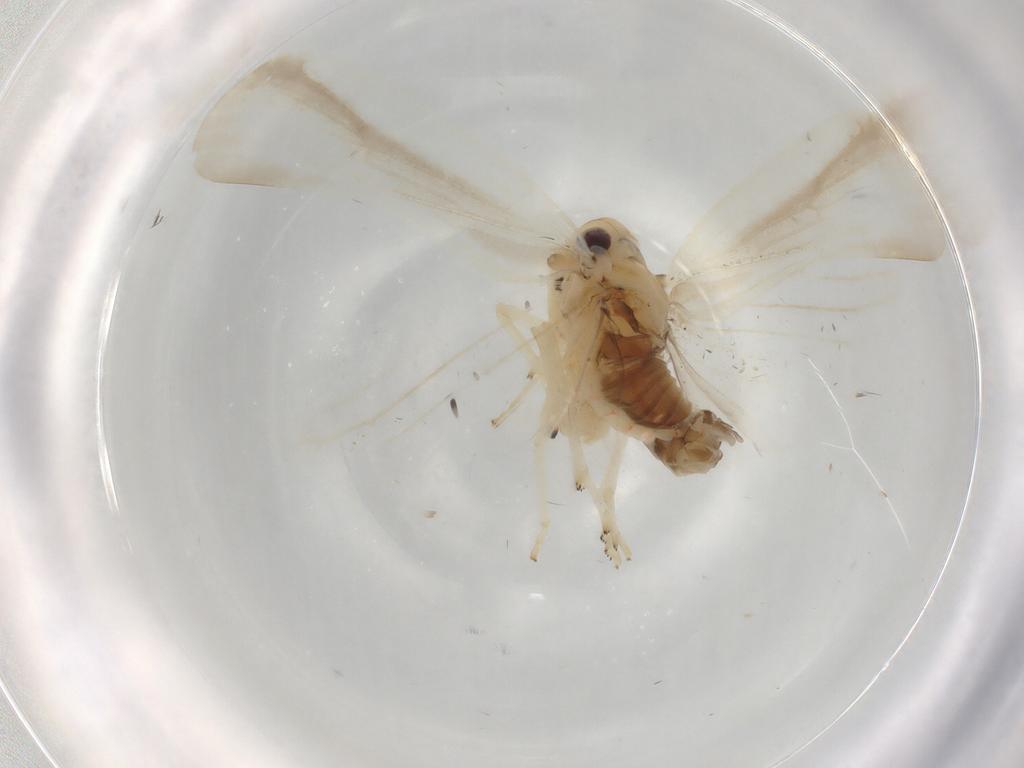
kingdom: Animalia
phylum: Arthropoda
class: Insecta
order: Hemiptera
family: Achilidae
